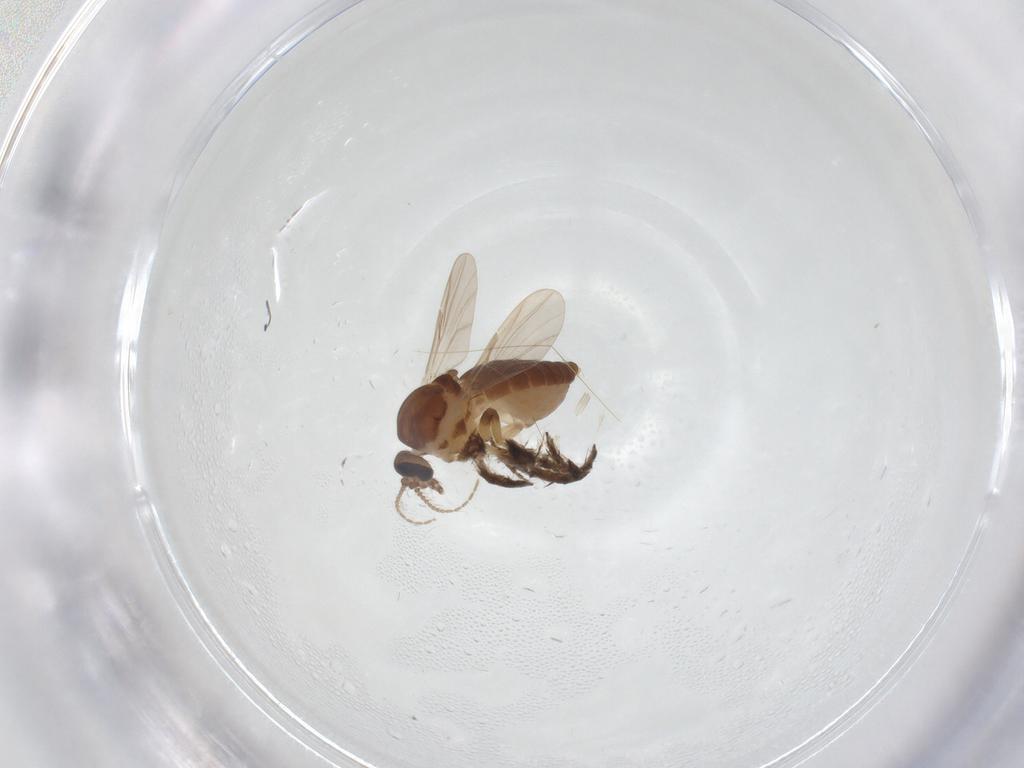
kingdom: Animalia
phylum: Arthropoda
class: Insecta
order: Diptera
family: Ceratopogonidae
